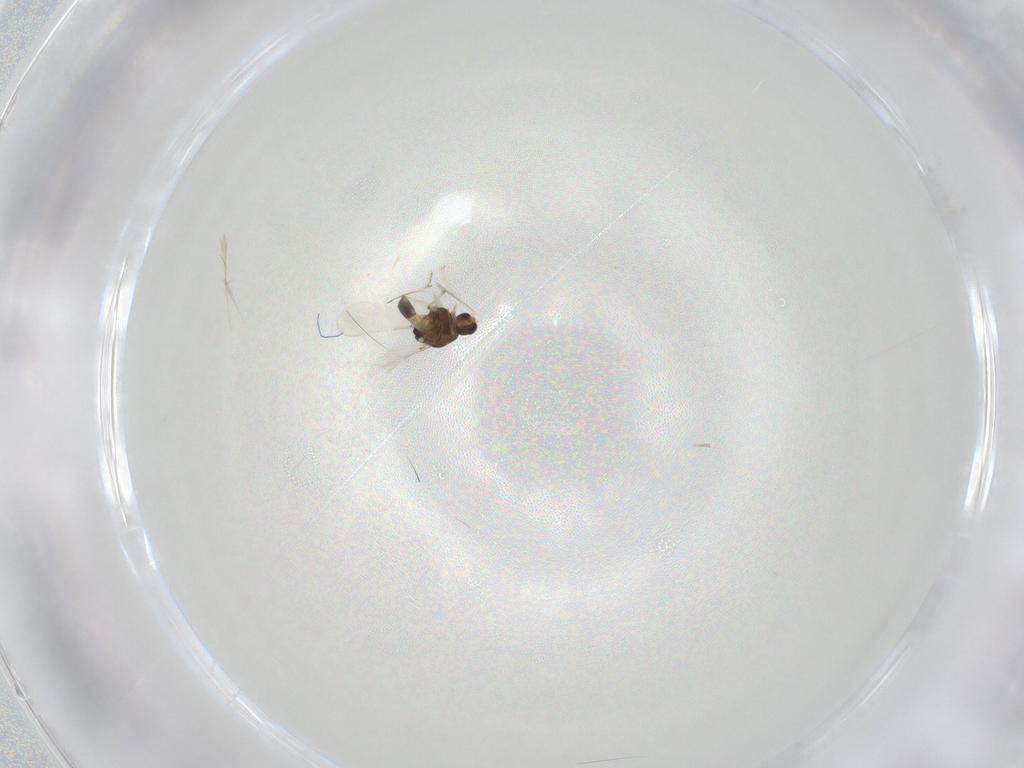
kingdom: Animalia
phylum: Arthropoda
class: Insecta
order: Diptera
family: Chironomidae
